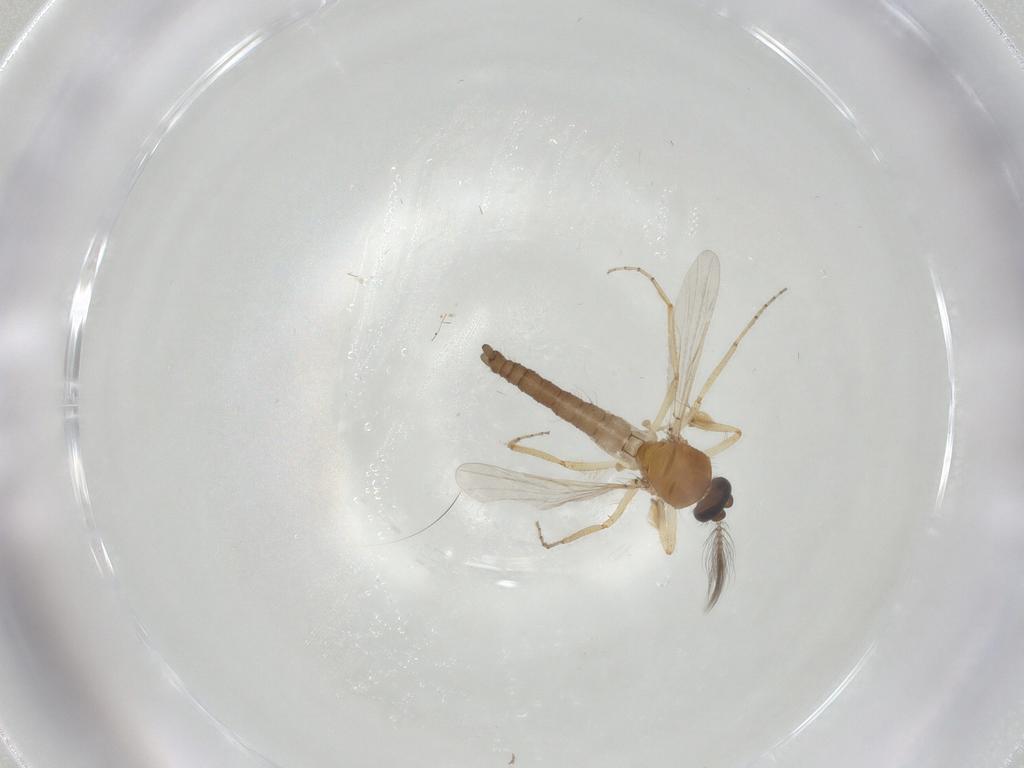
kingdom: Animalia
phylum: Arthropoda
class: Insecta
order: Diptera
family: Ceratopogonidae
